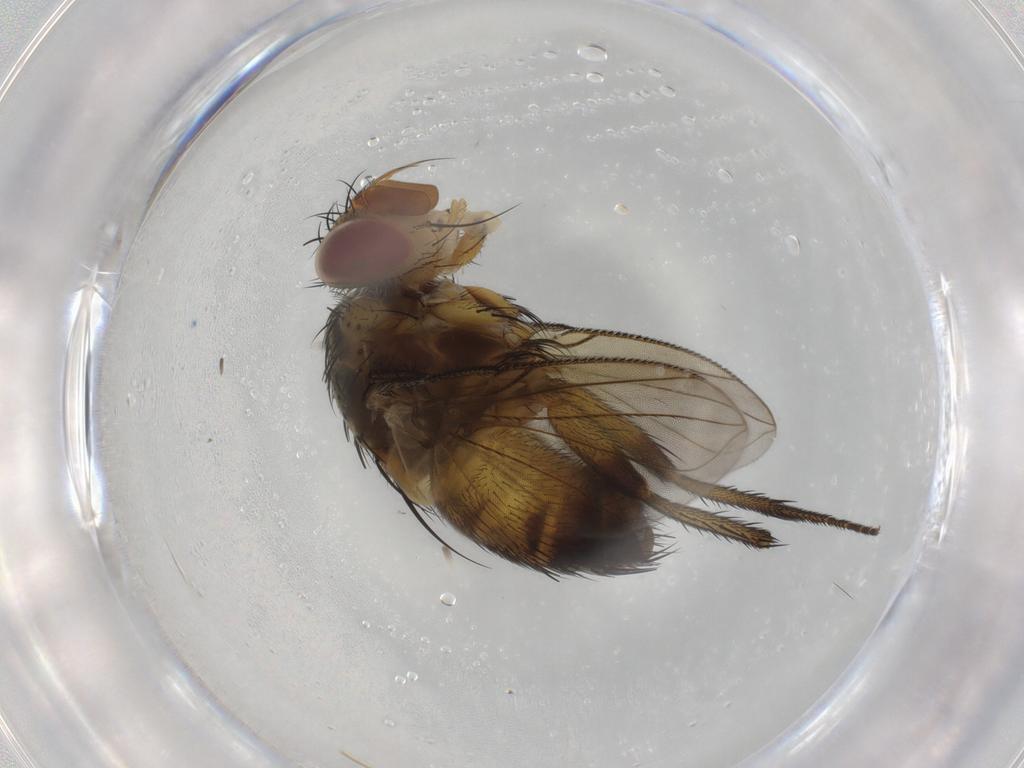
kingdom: Animalia
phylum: Arthropoda
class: Insecta
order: Diptera
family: Tachinidae
